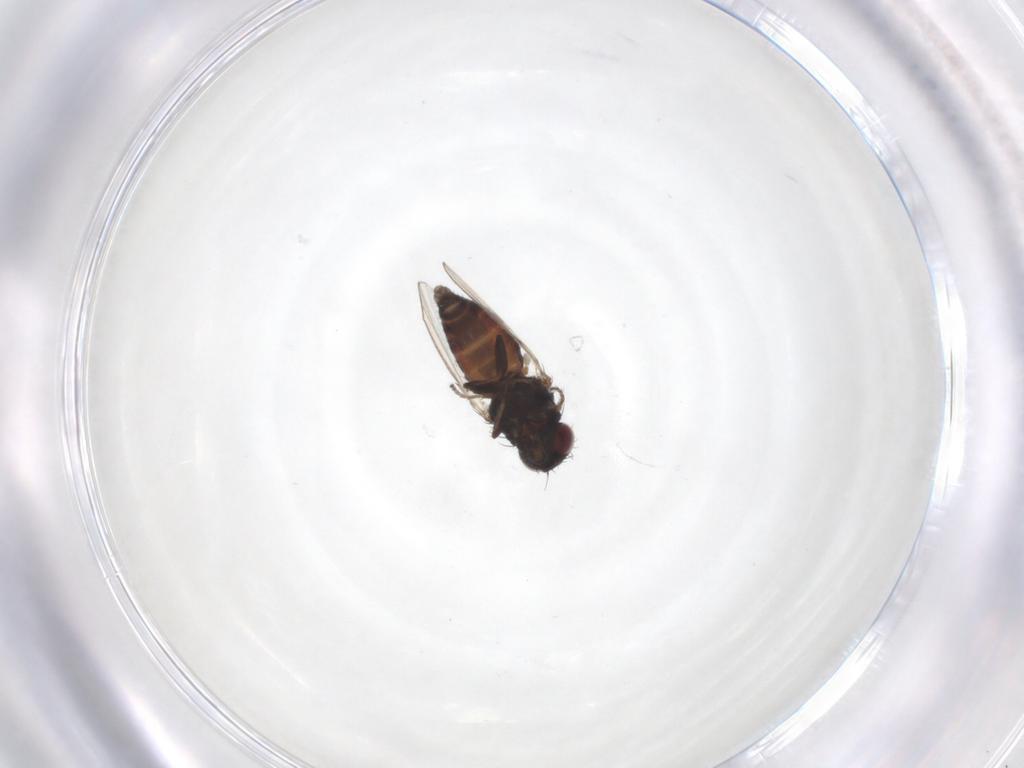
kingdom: Animalia
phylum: Arthropoda
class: Insecta
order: Diptera
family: Carnidae
